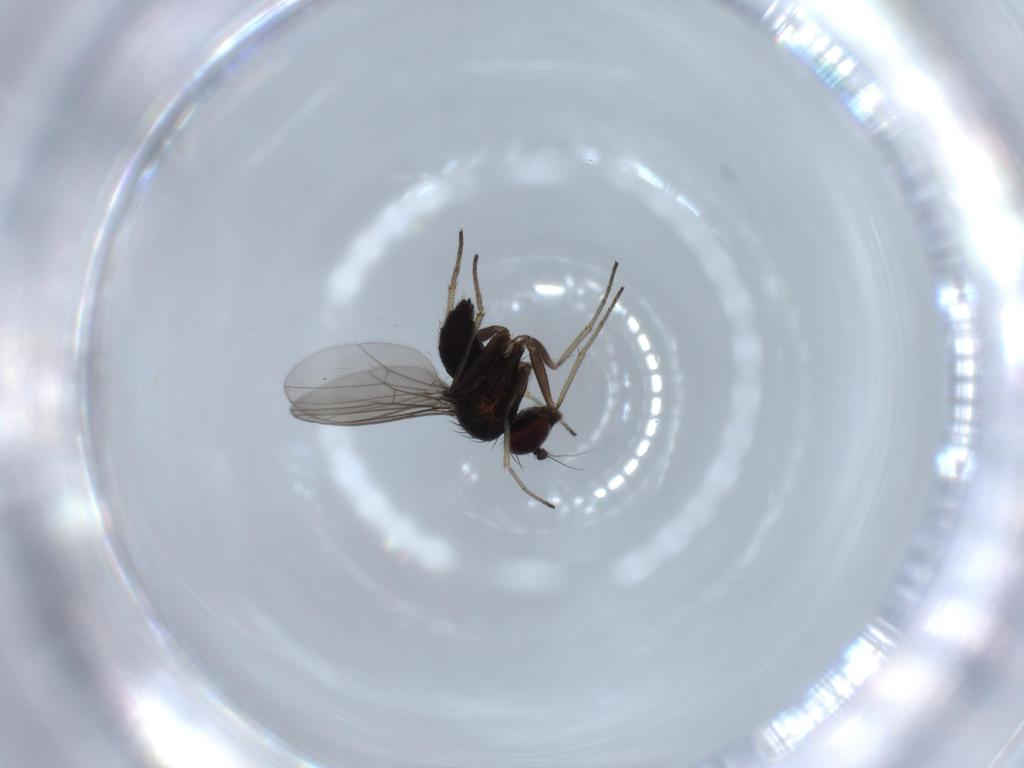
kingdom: Animalia
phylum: Arthropoda
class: Insecta
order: Diptera
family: Dolichopodidae
